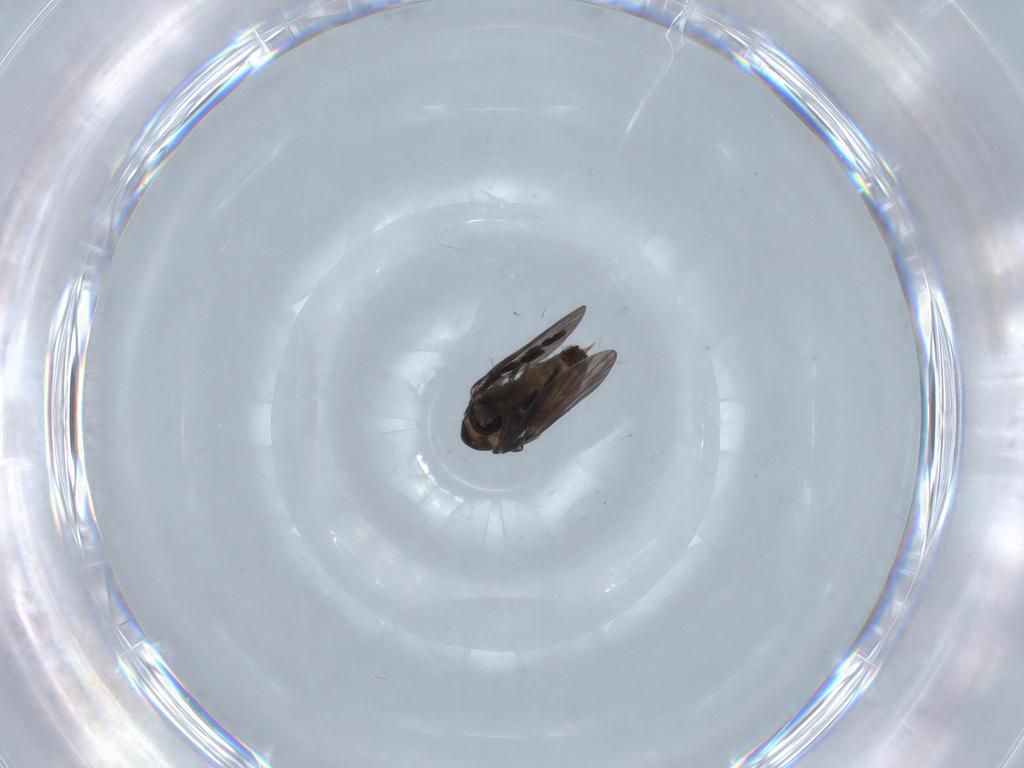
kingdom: Animalia
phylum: Arthropoda
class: Insecta
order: Diptera
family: Psychodidae
